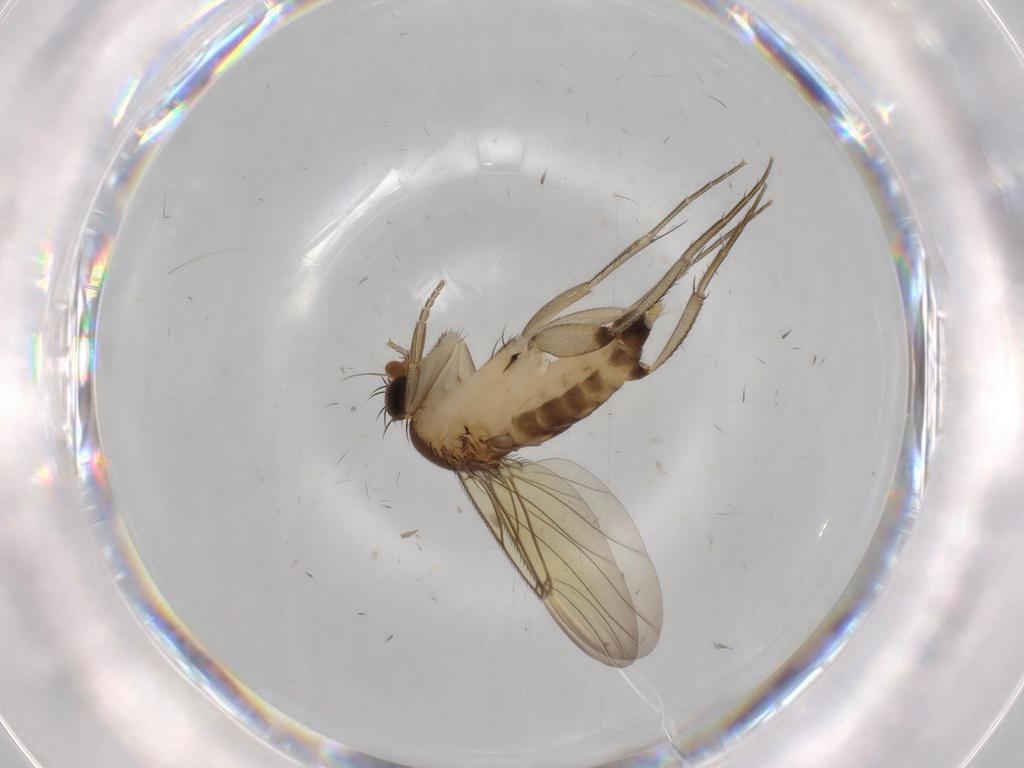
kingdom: Animalia
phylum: Arthropoda
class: Insecta
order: Diptera
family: Phoridae
